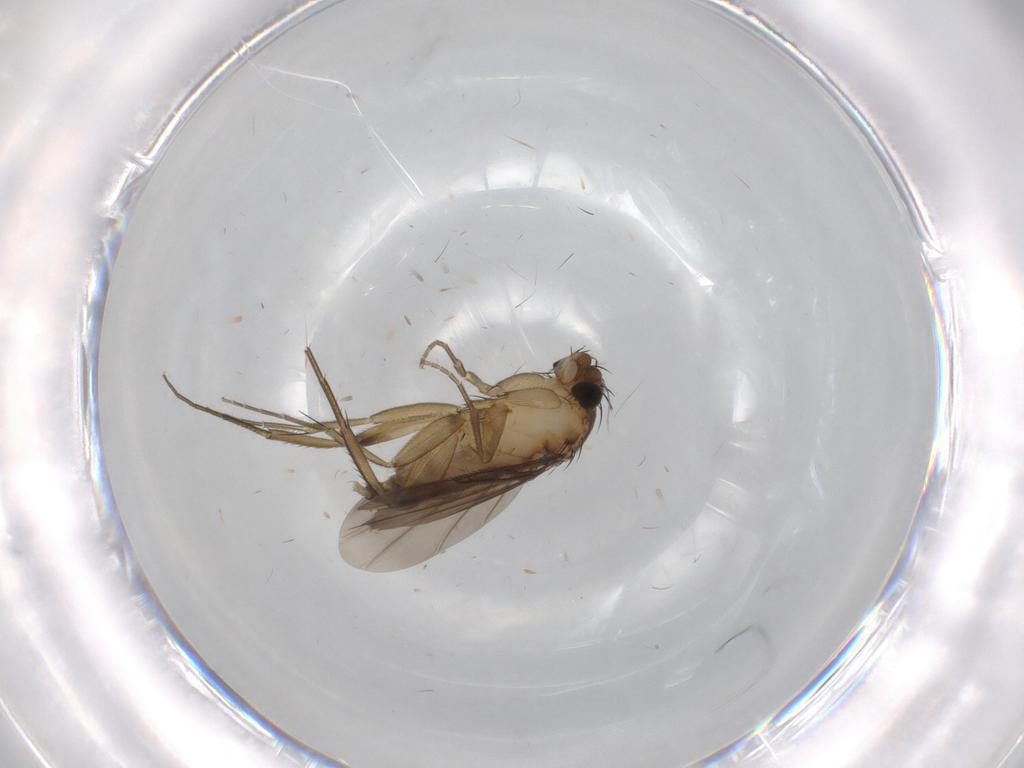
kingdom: Animalia
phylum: Arthropoda
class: Insecta
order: Diptera
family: Phoridae
